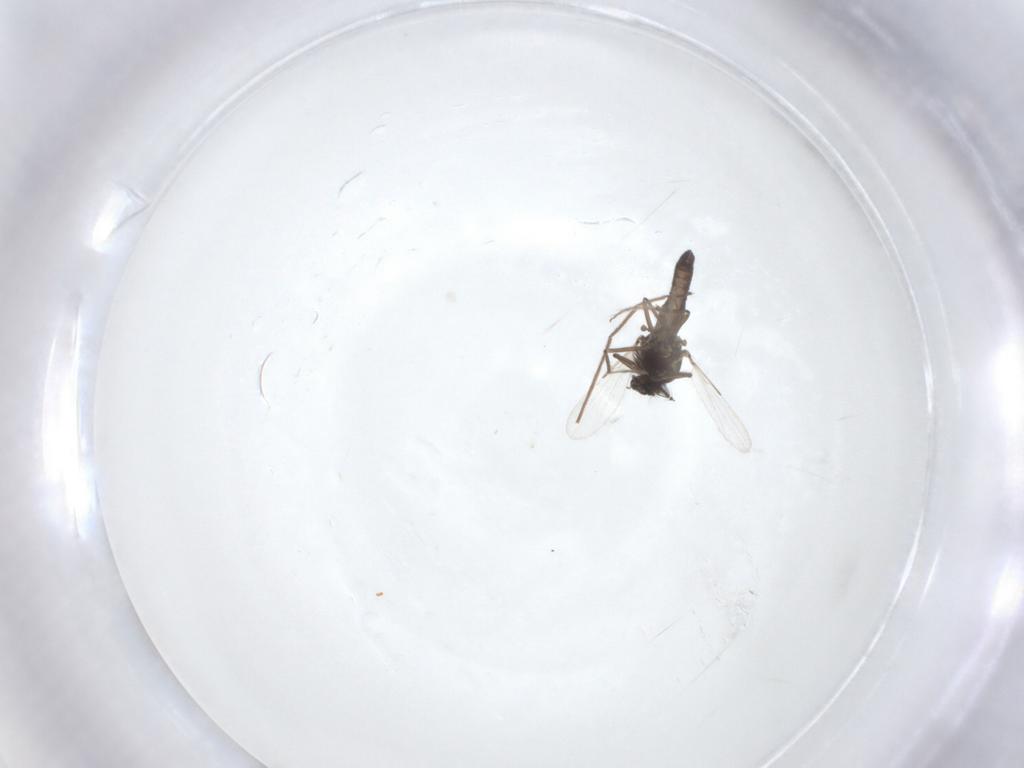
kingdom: Animalia
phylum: Arthropoda
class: Insecta
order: Diptera
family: Ceratopogonidae
